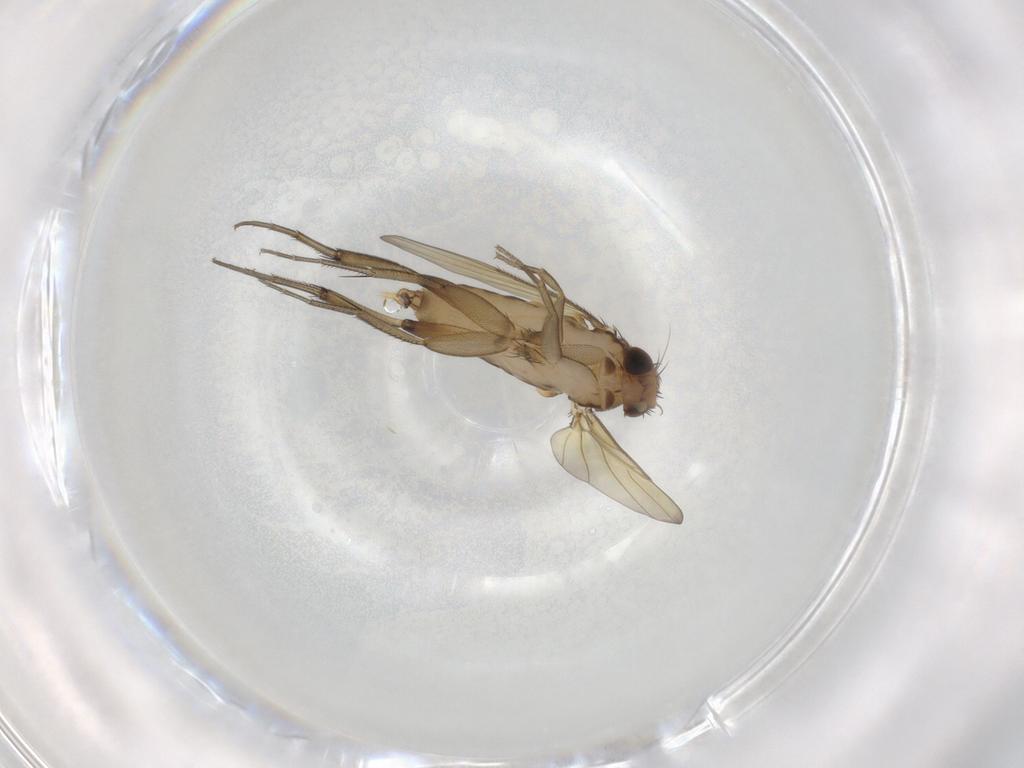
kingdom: Animalia
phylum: Arthropoda
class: Insecta
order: Diptera
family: Phoridae
